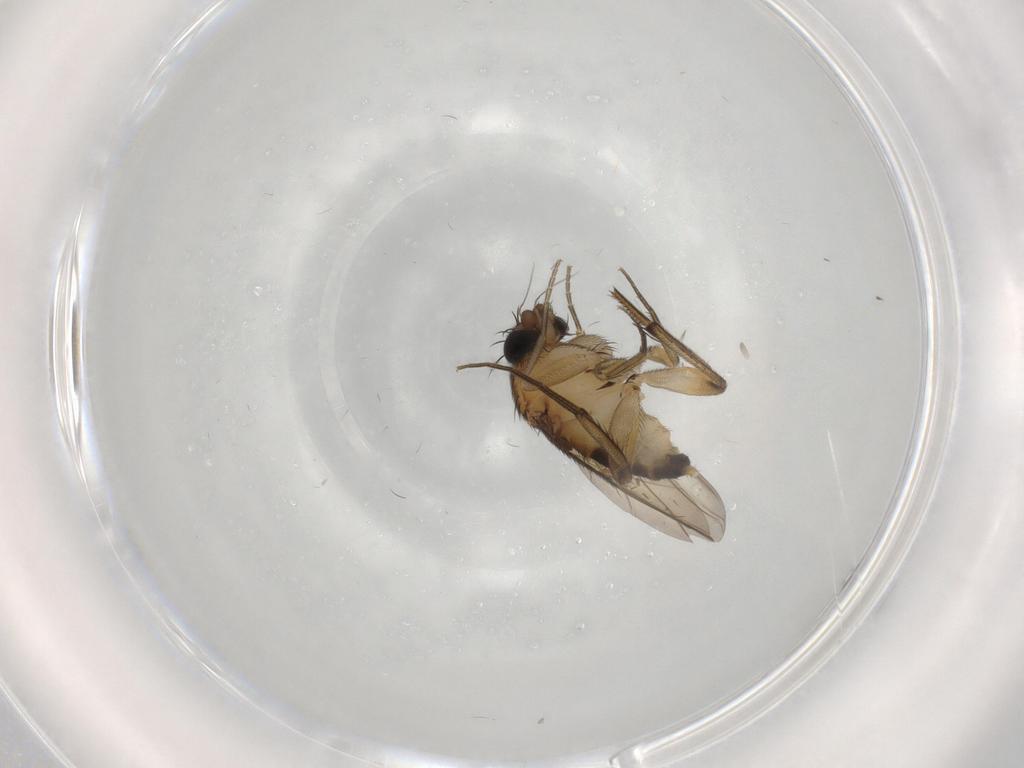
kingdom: Animalia
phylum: Arthropoda
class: Insecta
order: Diptera
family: Phoridae
